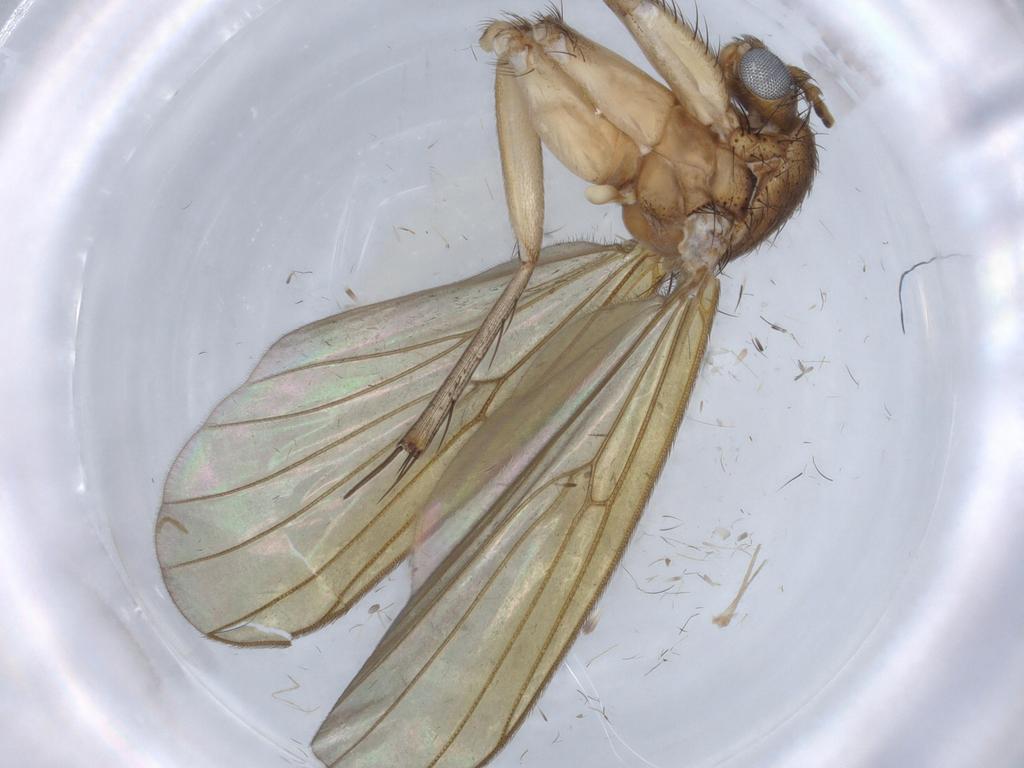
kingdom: Animalia
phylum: Arthropoda
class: Insecta
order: Diptera
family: Mycetophilidae
